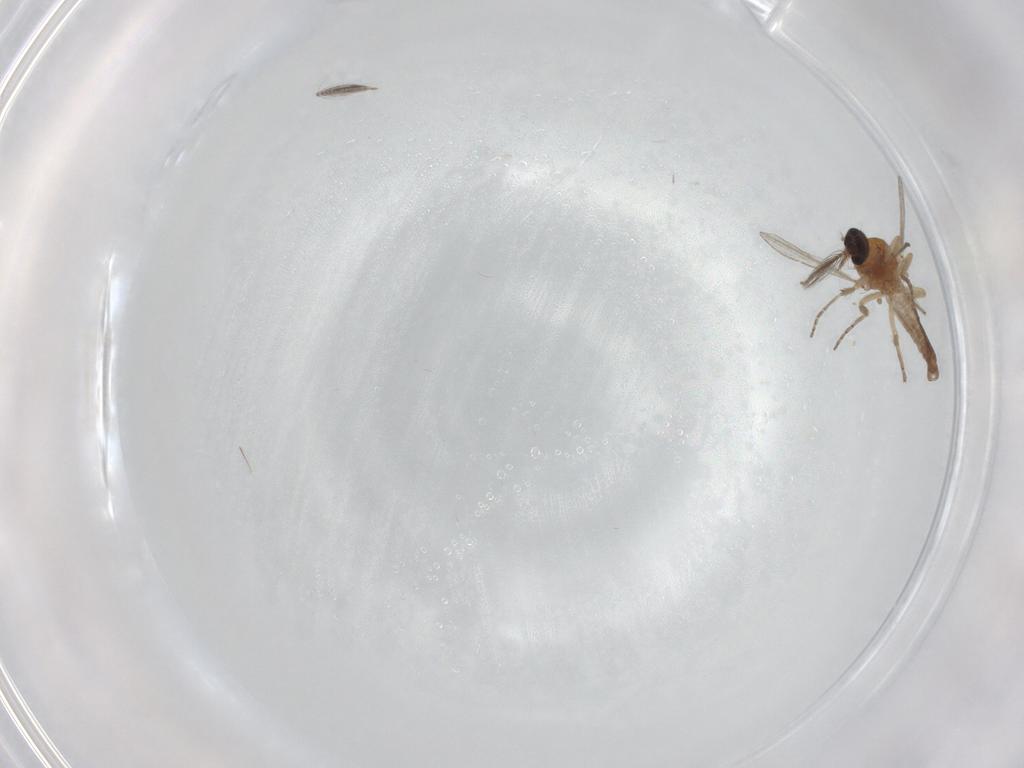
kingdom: Animalia
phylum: Arthropoda
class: Insecta
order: Diptera
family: Ceratopogonidae
